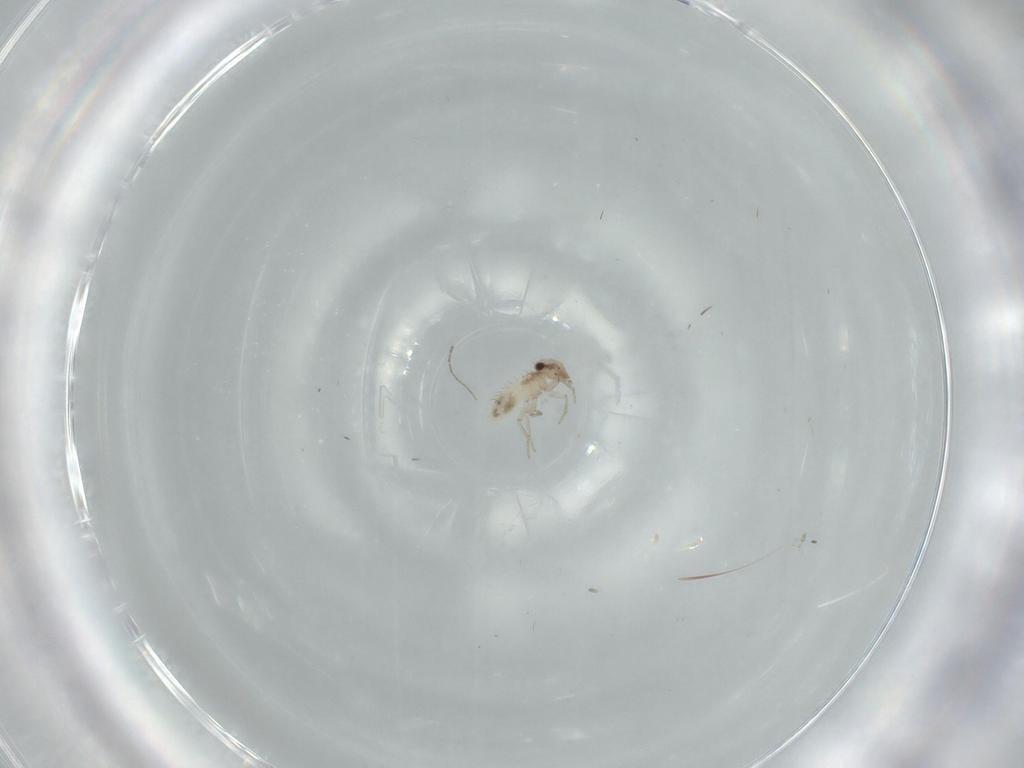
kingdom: Animalia
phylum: Arthropoda
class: Insecta
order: Psocodea
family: Lepidopsocidae
